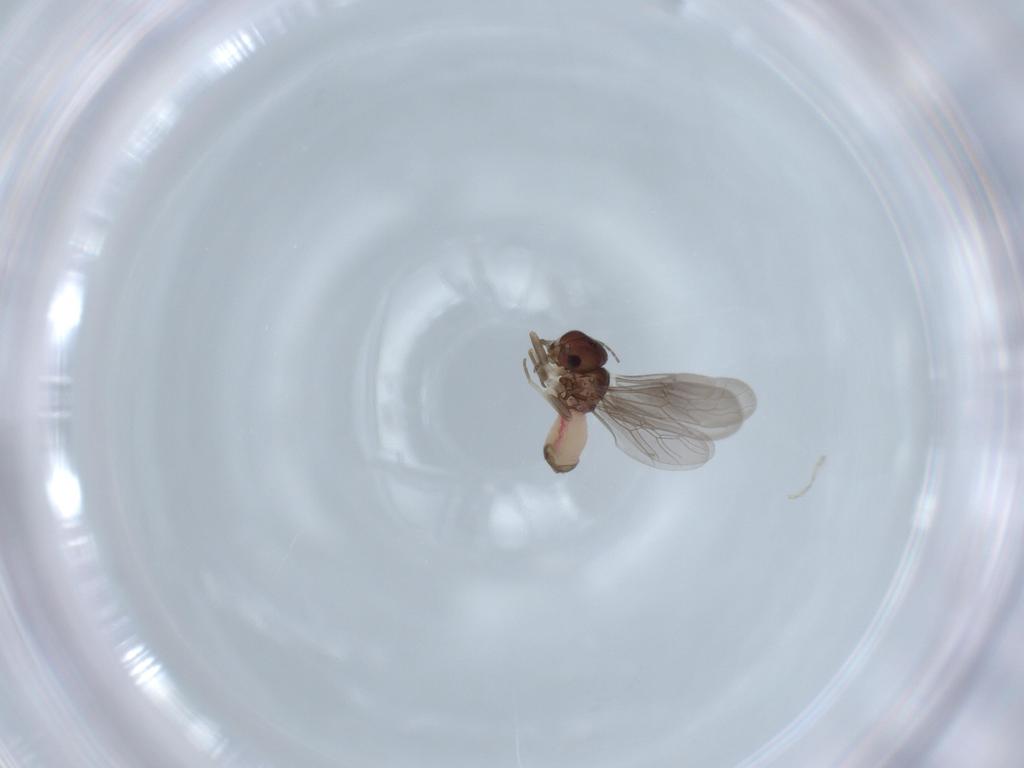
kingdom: Animalia
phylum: Arthropoda
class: Insecta
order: Psocodea
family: Asiopsocidae
